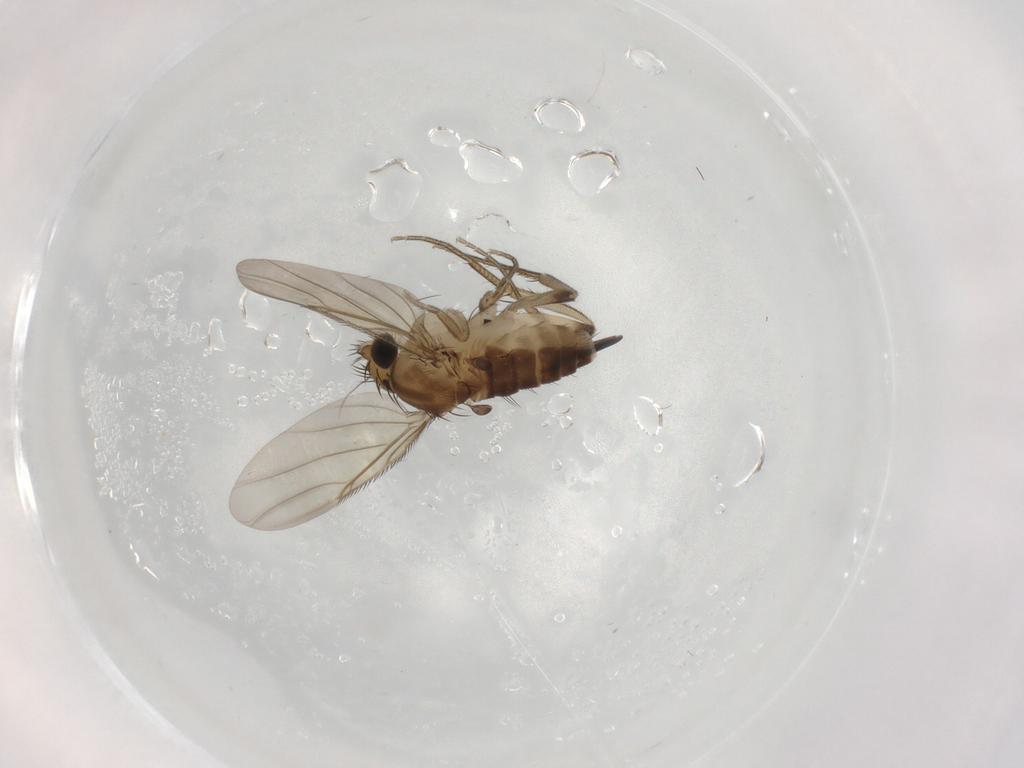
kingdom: Animalia
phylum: Arthropoda
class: Insecta
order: Diptera
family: Phoridae
